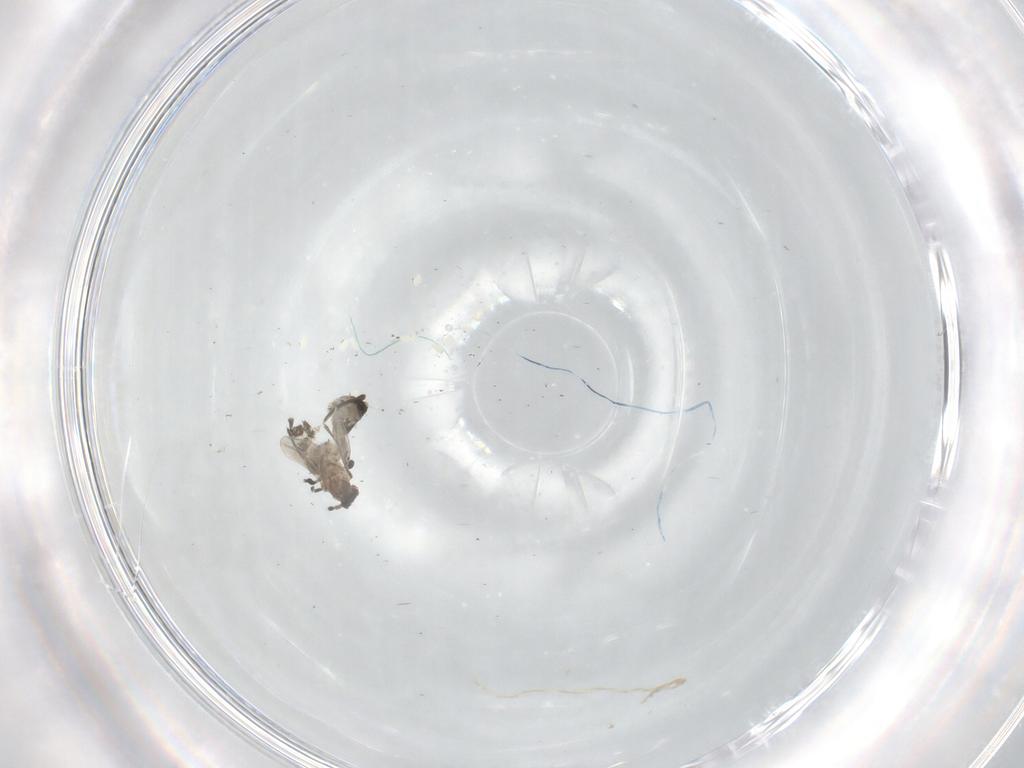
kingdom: Animalia
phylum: Arthropoda
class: Insecta
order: Diptera
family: Cecidomyiidae
